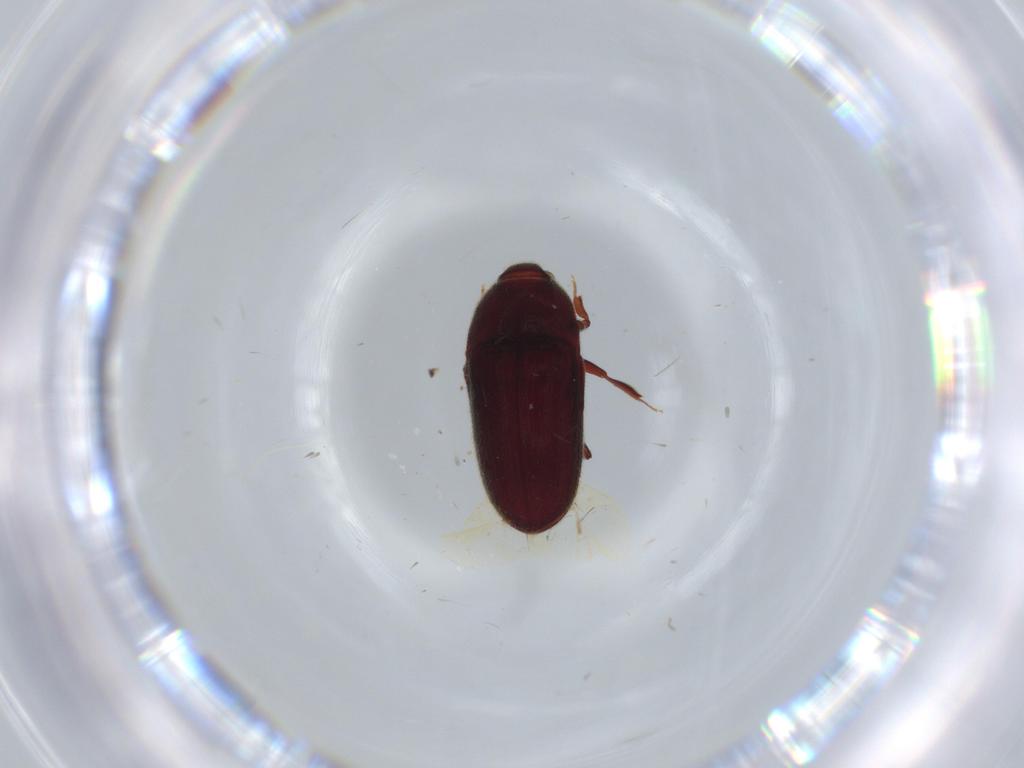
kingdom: Animalia
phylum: Arthropoda
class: Insecta
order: Coleoptera
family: Throscidae
